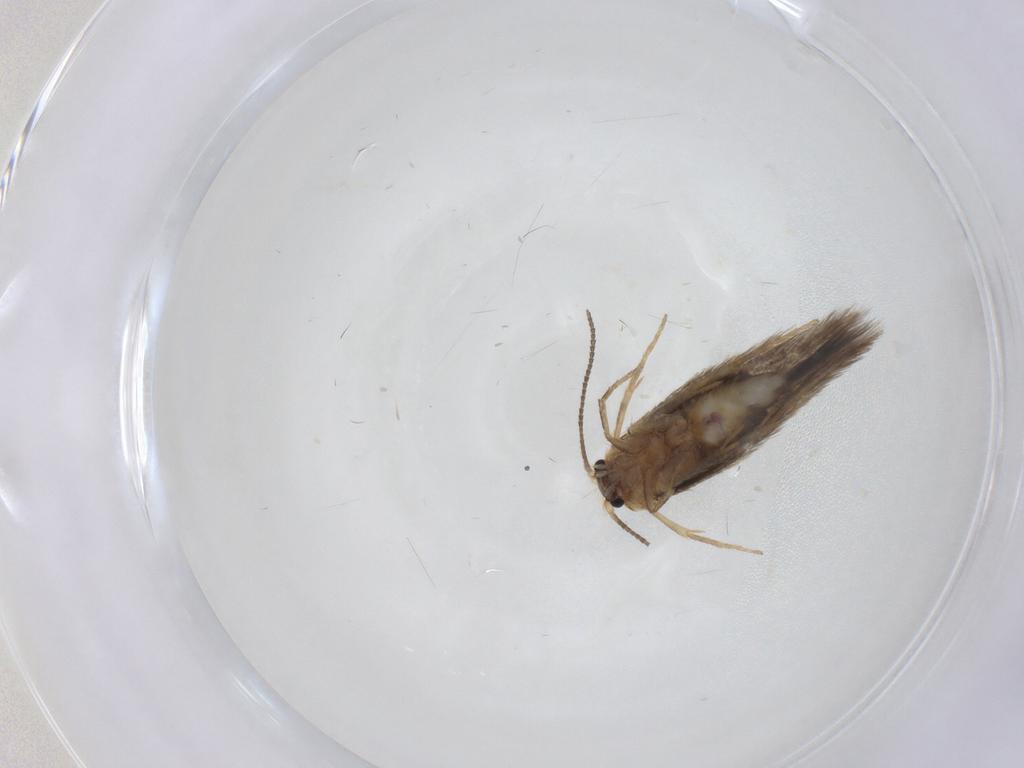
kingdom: Animalia
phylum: Arthropoda
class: Insecta
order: Lepidoptera
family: Nepticulidae
